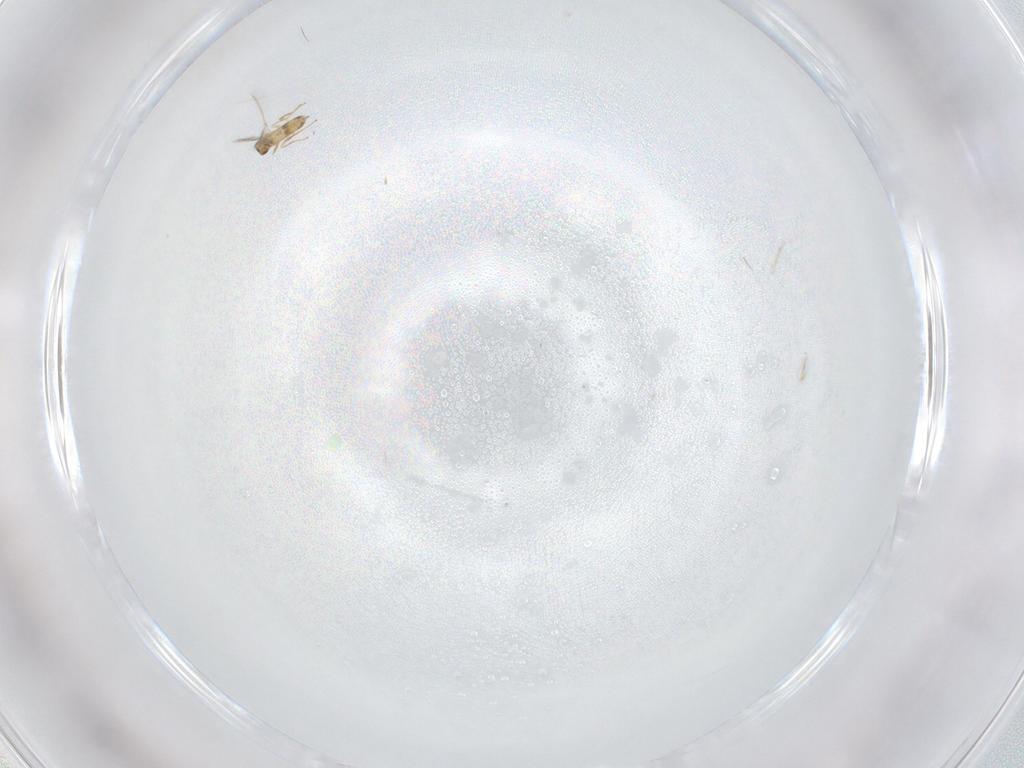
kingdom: Animalia
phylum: Arthropoda
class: Insecta
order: Hymenoptera
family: Mymaridae
